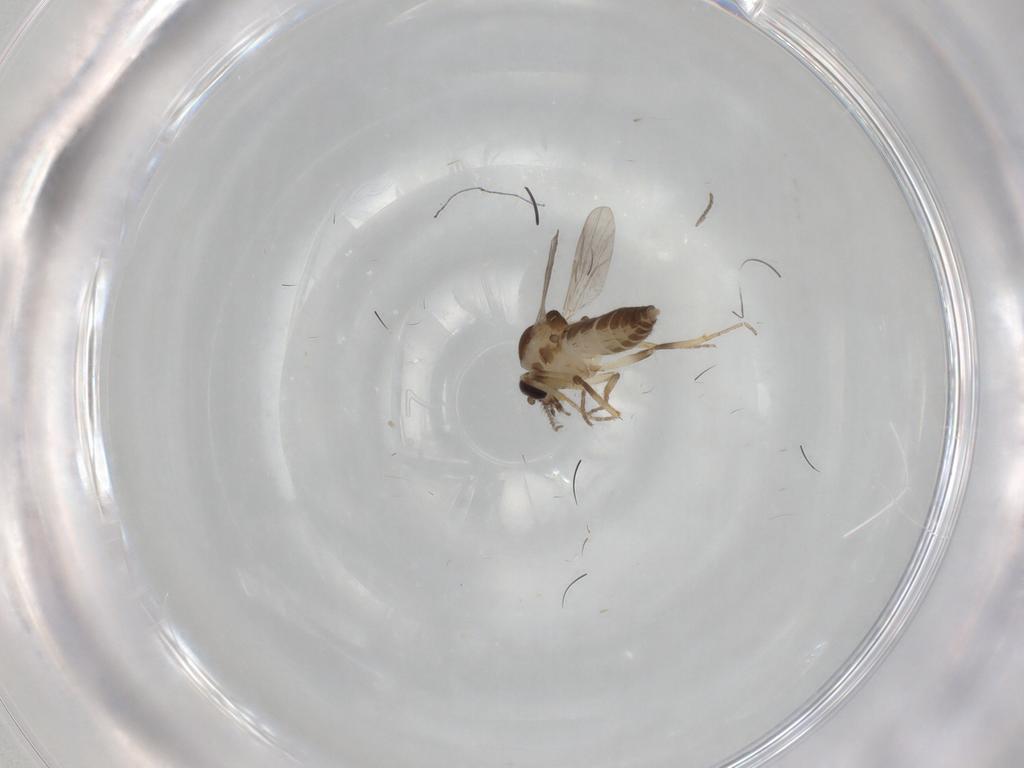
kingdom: Animalia
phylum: Arthropoda
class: Insecta
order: Diptera
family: Ceratopogonidae
